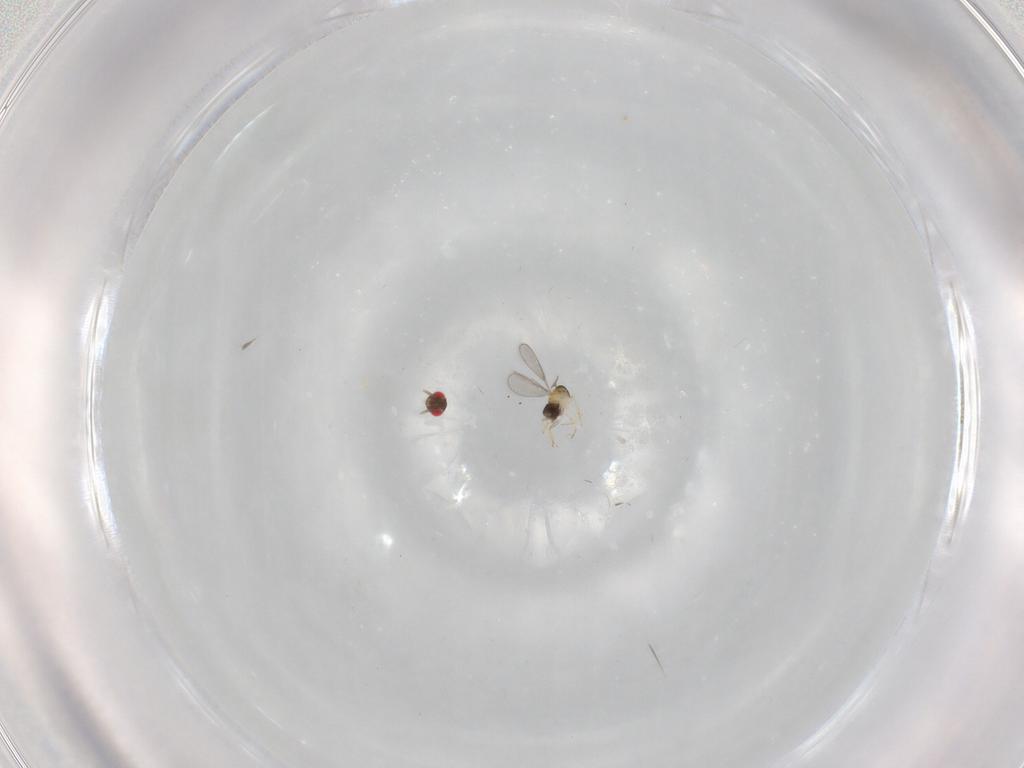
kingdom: Animalia
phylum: Arthropoda
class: Insecta
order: Hymenoptera
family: Aphelinidae
